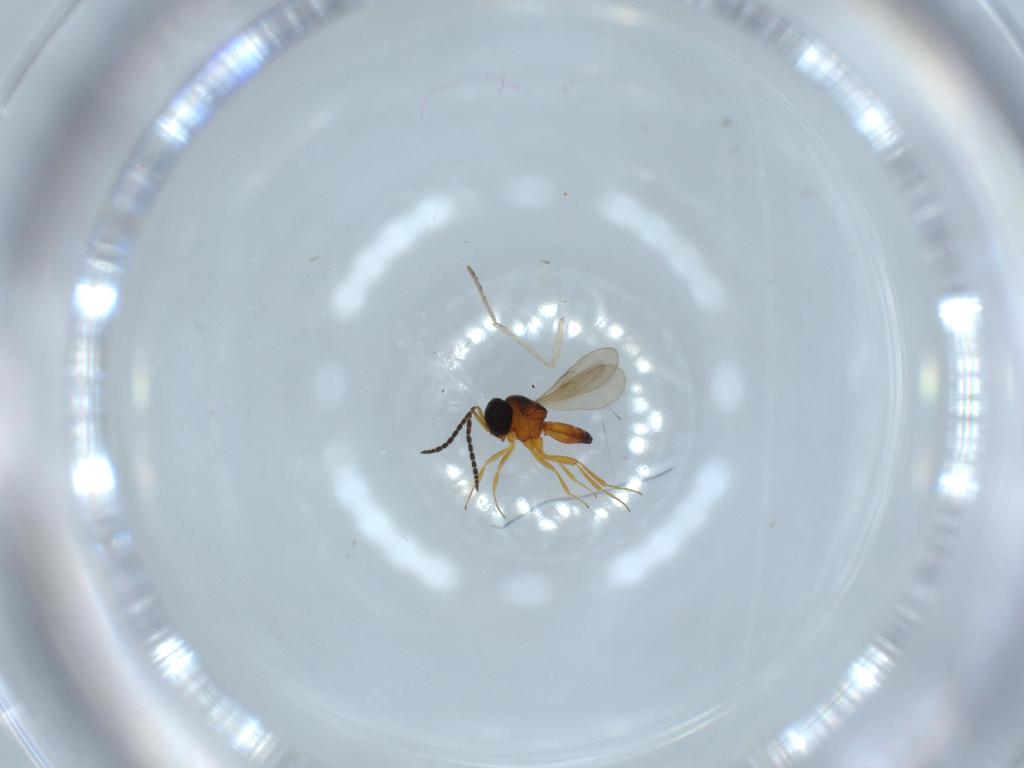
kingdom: Animalia
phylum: Arthropoda
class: Insecta
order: Hymenoptera
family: Scelionidae
